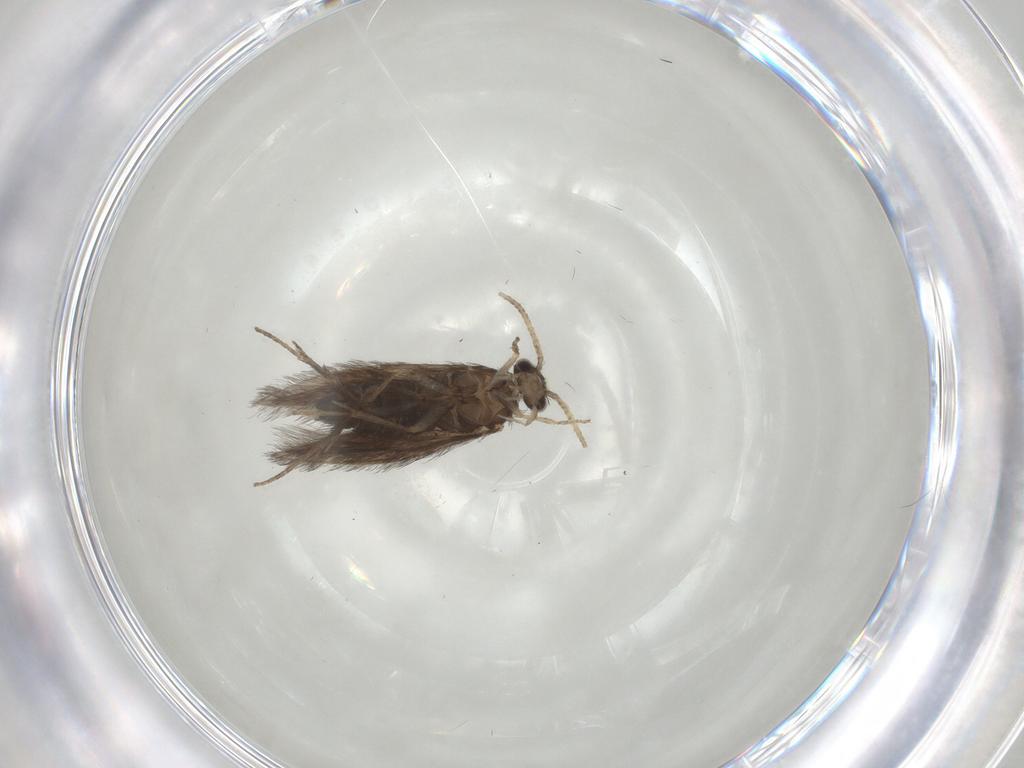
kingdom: Animalia
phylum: Arthropoda
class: Insecta
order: Trichoptera
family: Hydroptilidae
